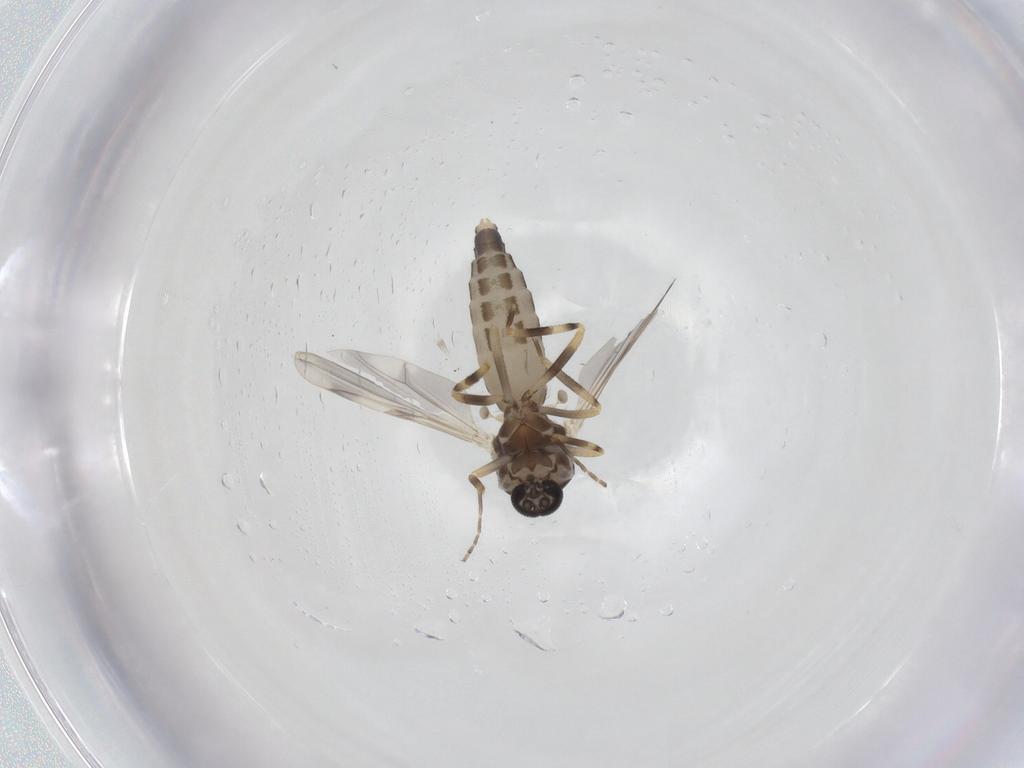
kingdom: Animalia
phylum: Arthropoda
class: Insecta
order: Diptera
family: Ceratopogonidae
